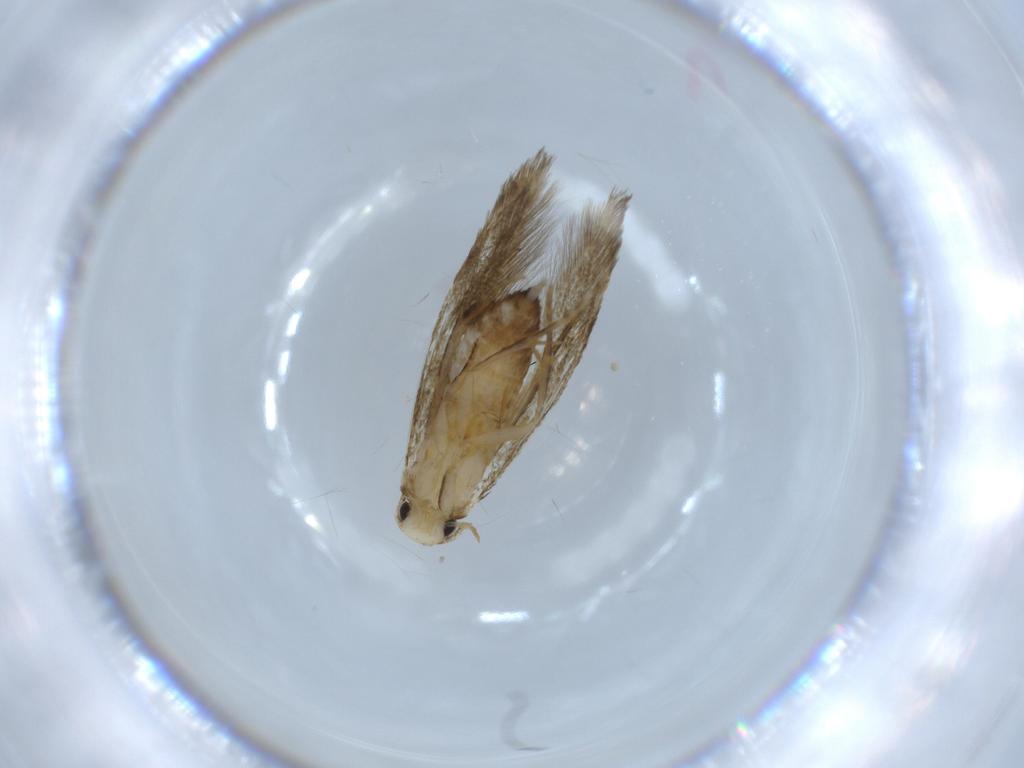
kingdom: Animalia
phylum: Arthropoda
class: Insecta
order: Lepidoptera
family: Tineidae
